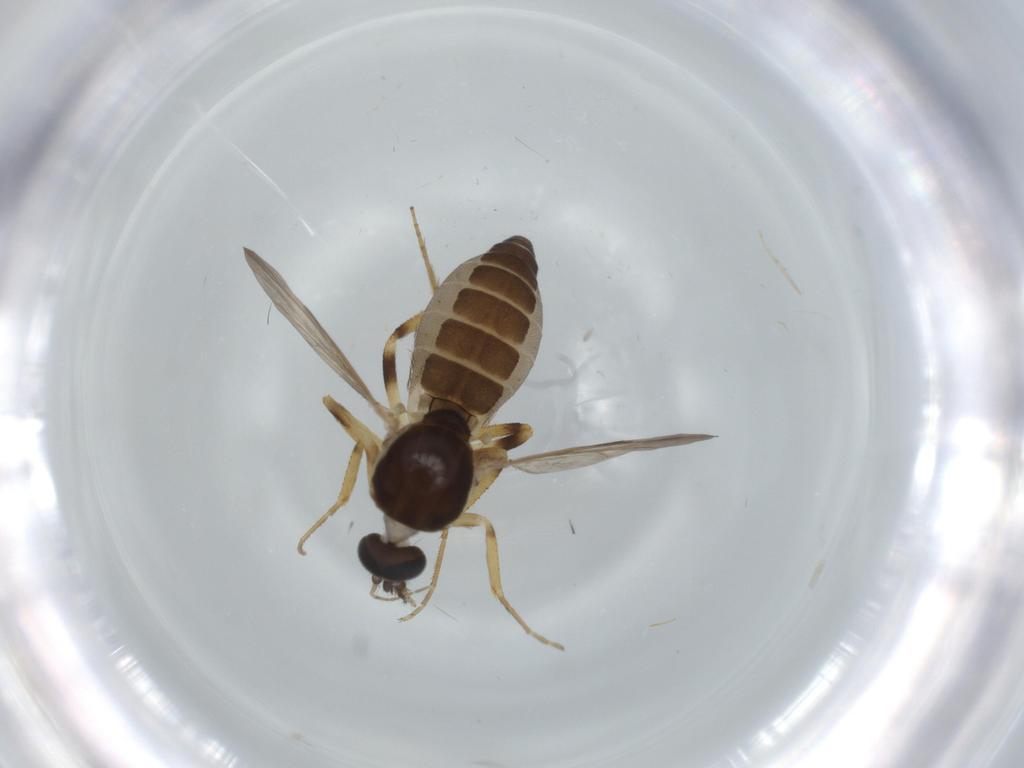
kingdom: Animalia
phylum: Arthropoda
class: Insecta
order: Diptera
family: Ceratopogonidae
